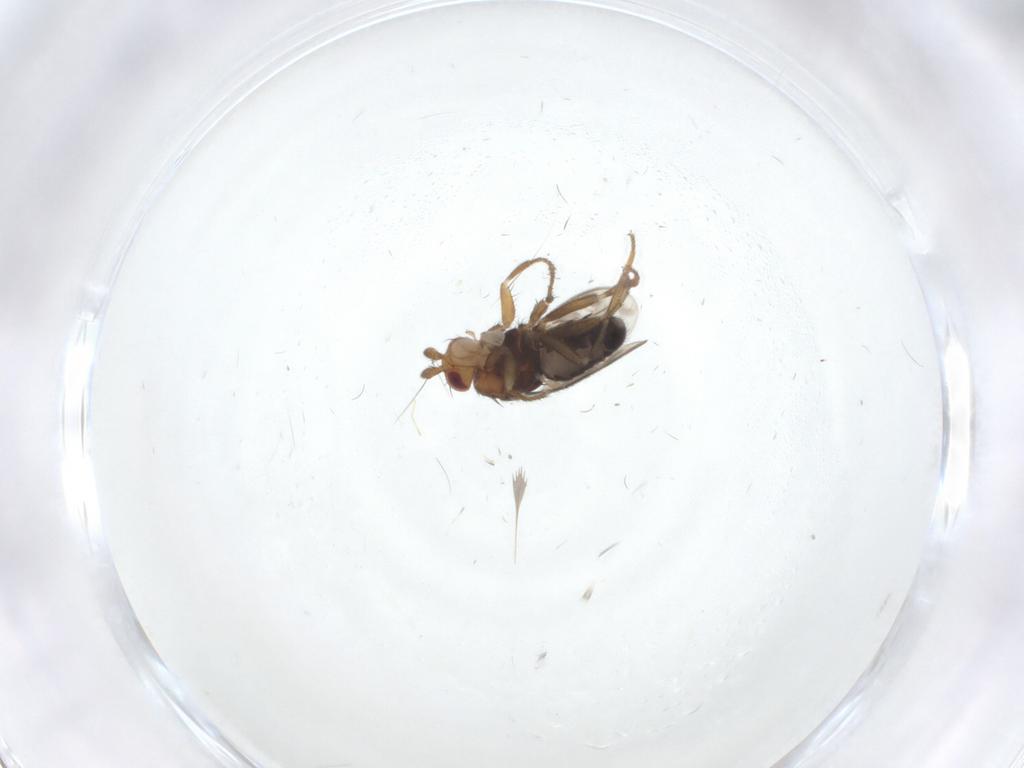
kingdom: Animalia
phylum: Arthropoda
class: Insecta
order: Diptera
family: Sphaeroceridae
